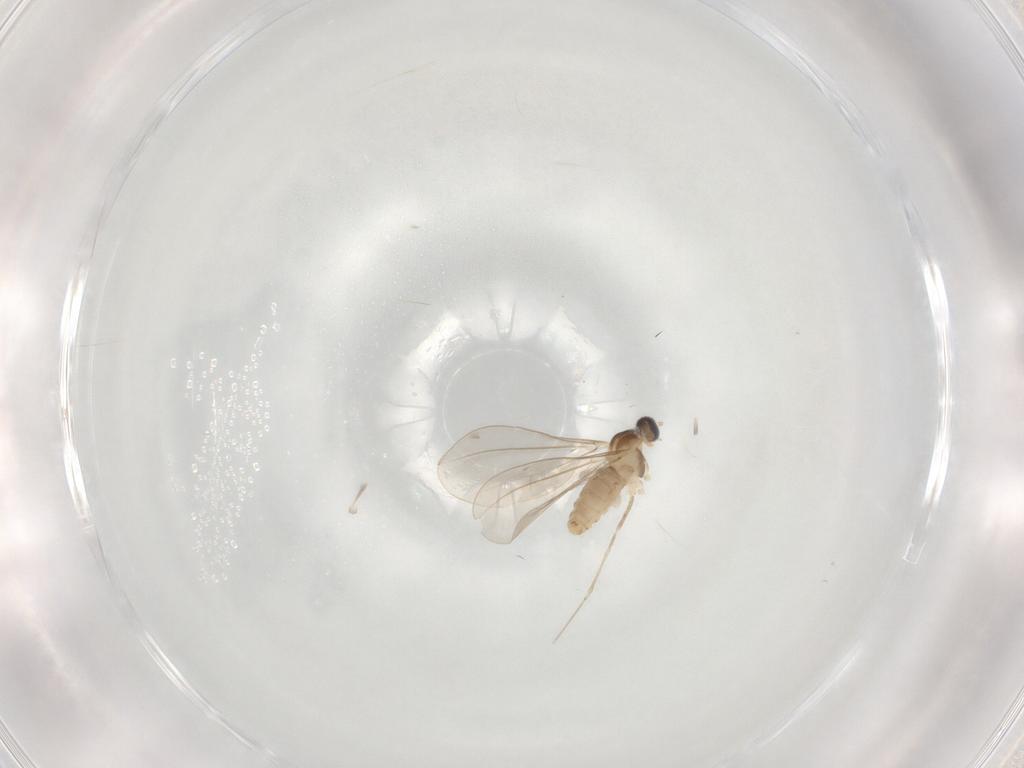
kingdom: Animalia
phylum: Arthropoda
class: Insecta
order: Diptera
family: Cecidomyiidae
